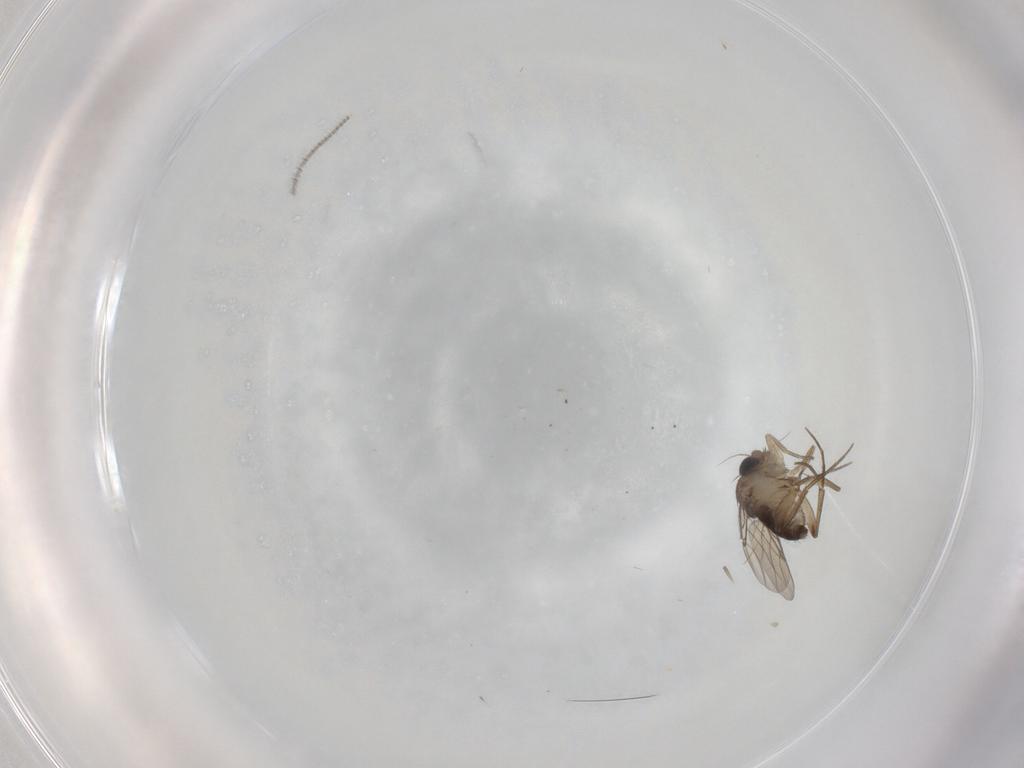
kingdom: Animalia
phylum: Arthropoda
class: Insecta
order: Diptera
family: Phoridae
